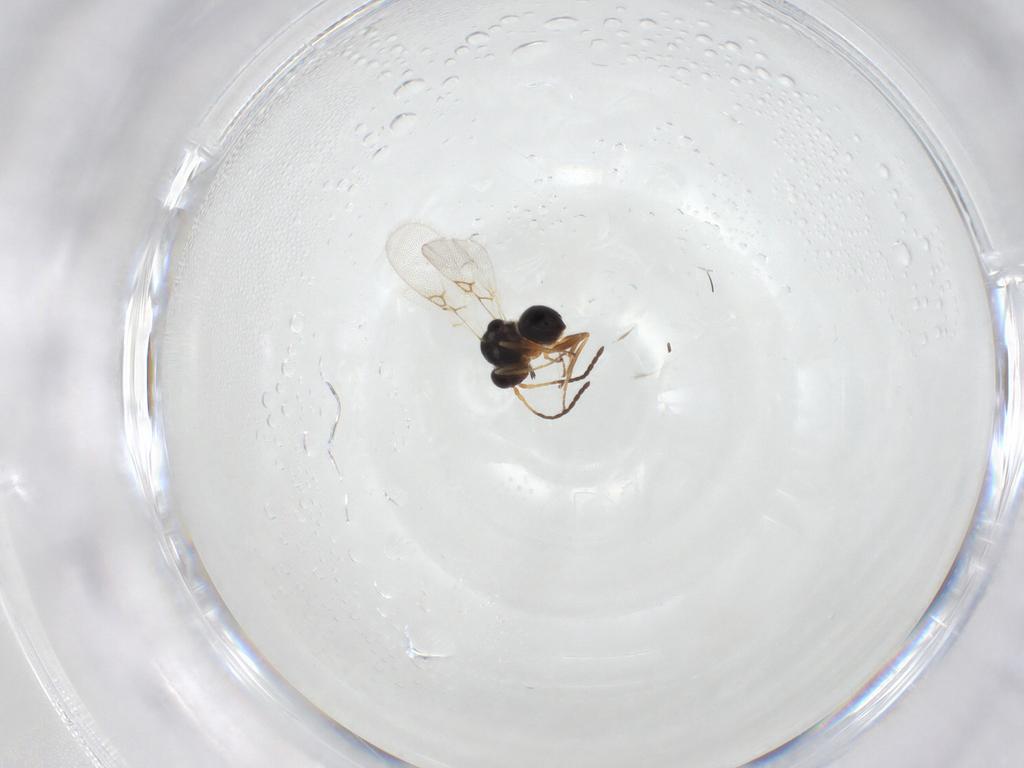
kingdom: Animalia
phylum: Arthropoda
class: Insecta
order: Hymenoptera
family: Figitidae
